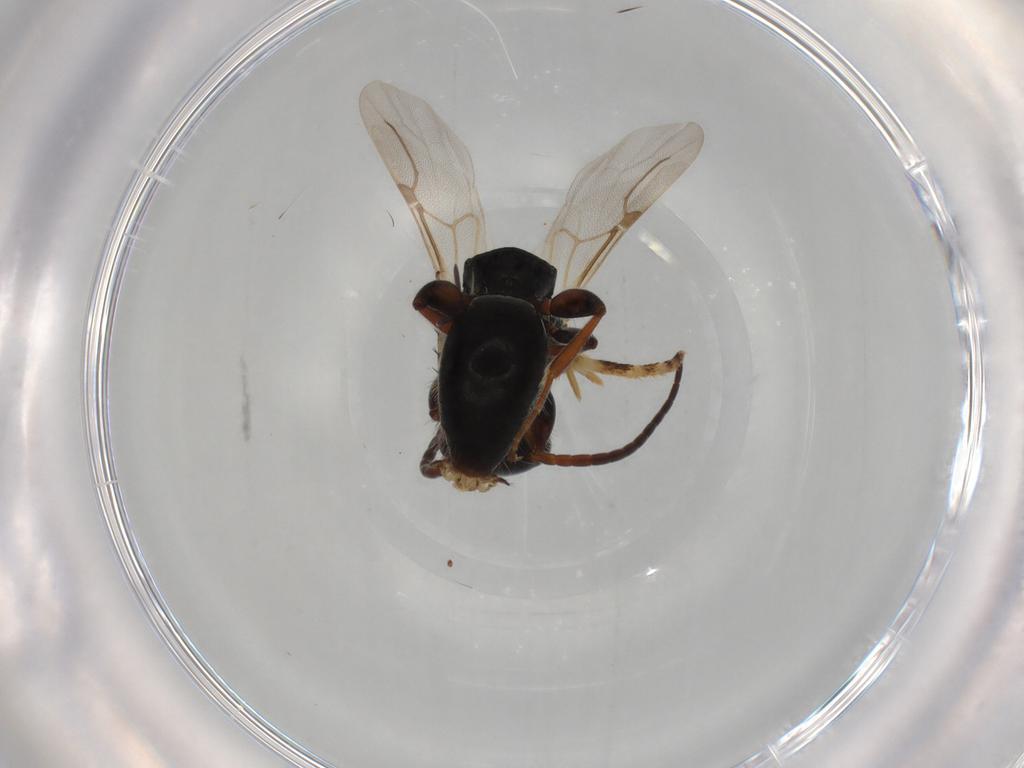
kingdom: Animalia
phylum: Arthropoda
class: Insecta
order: Hymenoptera
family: Bethylidae
